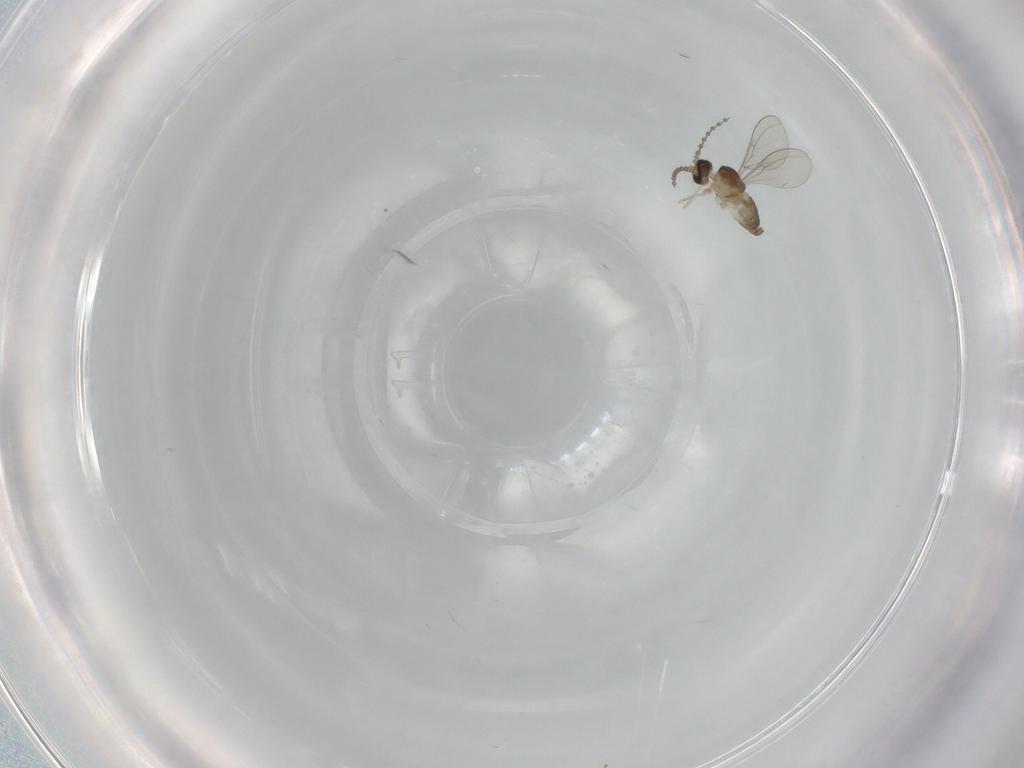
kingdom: Animalia
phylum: Arthropoda
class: Insecta
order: Diptera
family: Cecidomyiidae
